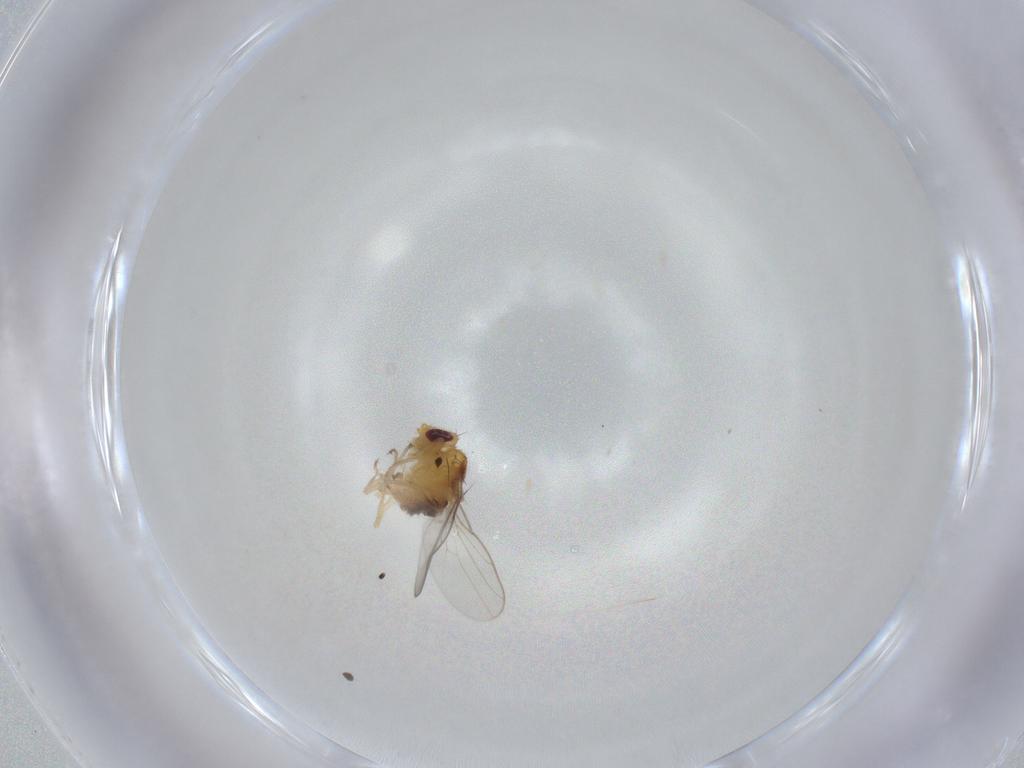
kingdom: Animalia
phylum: Arthropoda
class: Insecta
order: Diptera
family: Chloropidae
